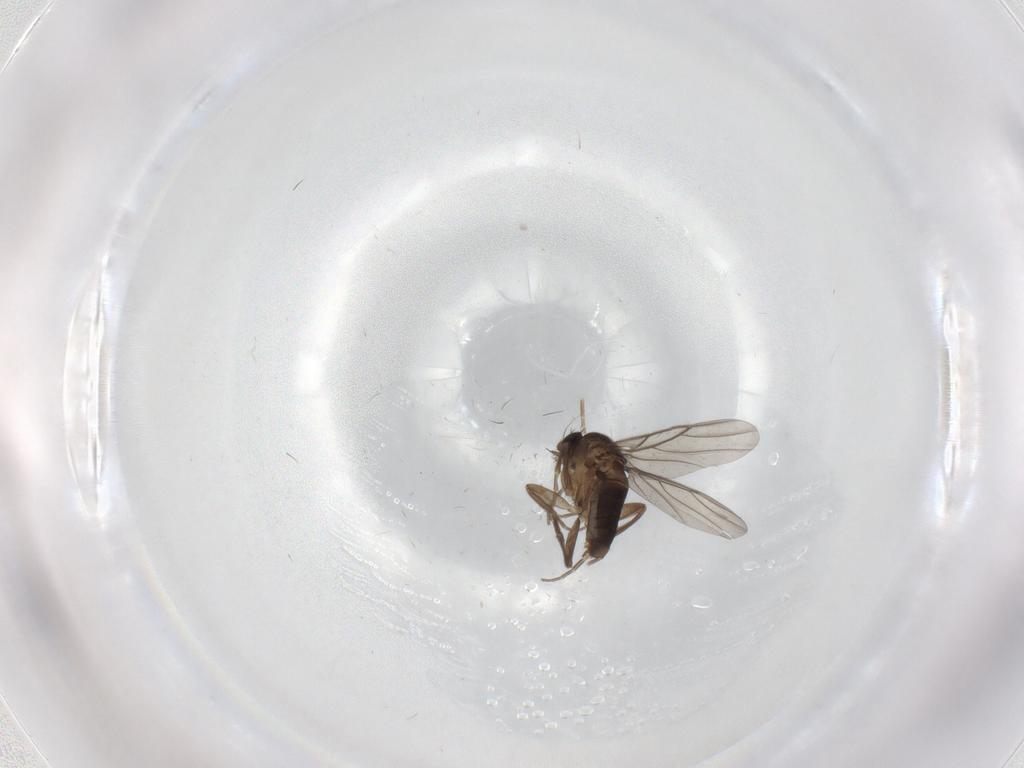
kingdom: Animalia
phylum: Arthropoda
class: Insecta
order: Diptera
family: Phoridae
